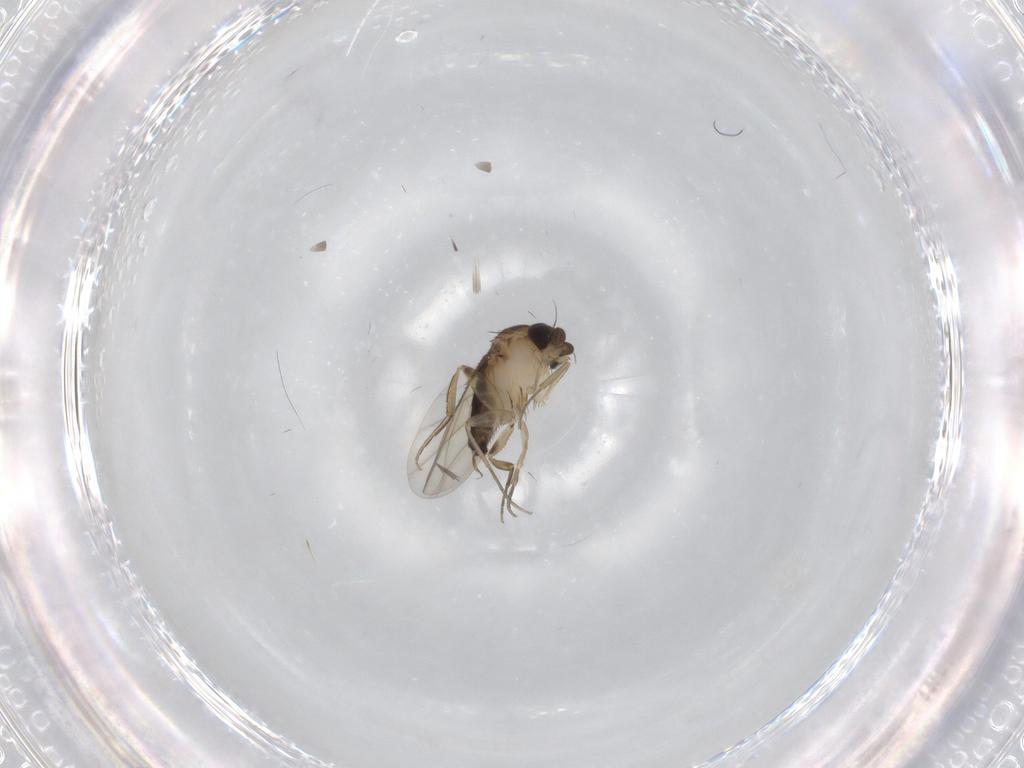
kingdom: Animalia
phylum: Arthropoda
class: Insecta
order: Diptera
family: Phoridae
